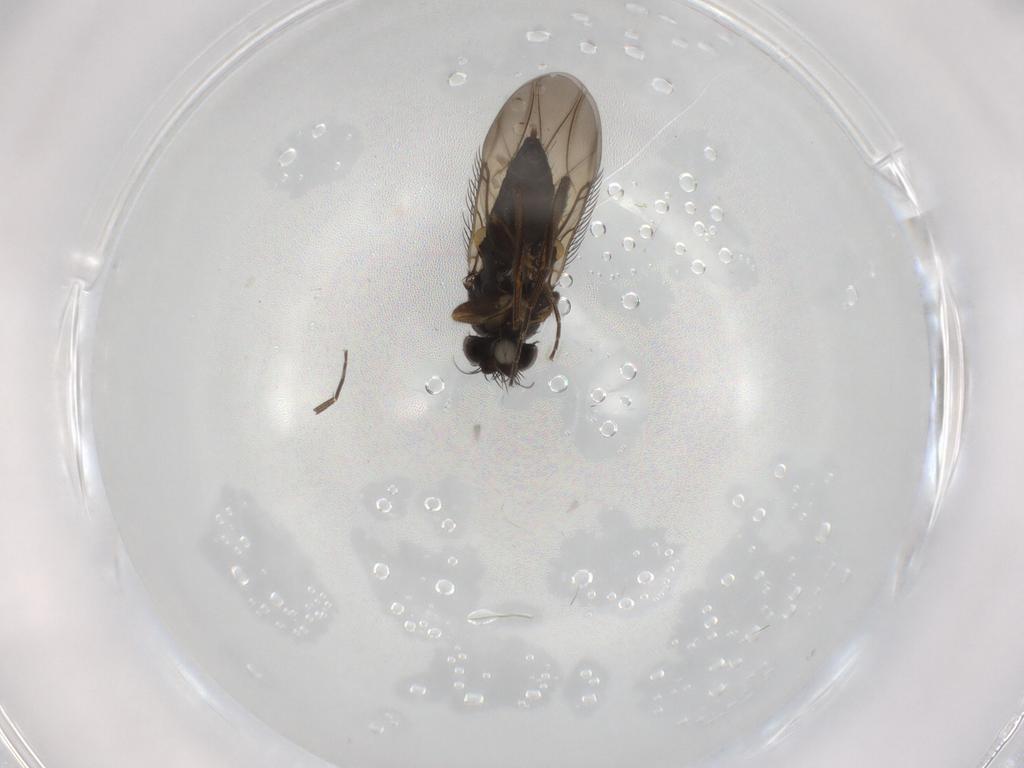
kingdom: Animalia
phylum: Arthropoda
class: Insecta
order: Diptera
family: Phoridae
